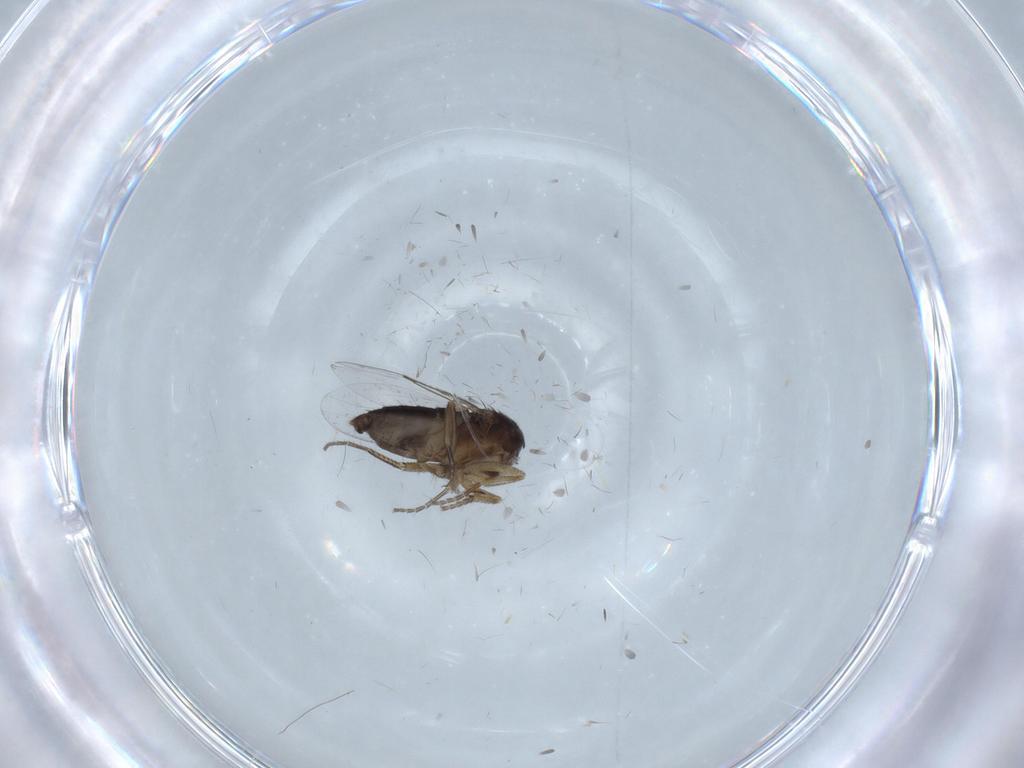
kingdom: Animalia
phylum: Arthropoda
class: Insecta
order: Diptera
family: Phoridae
